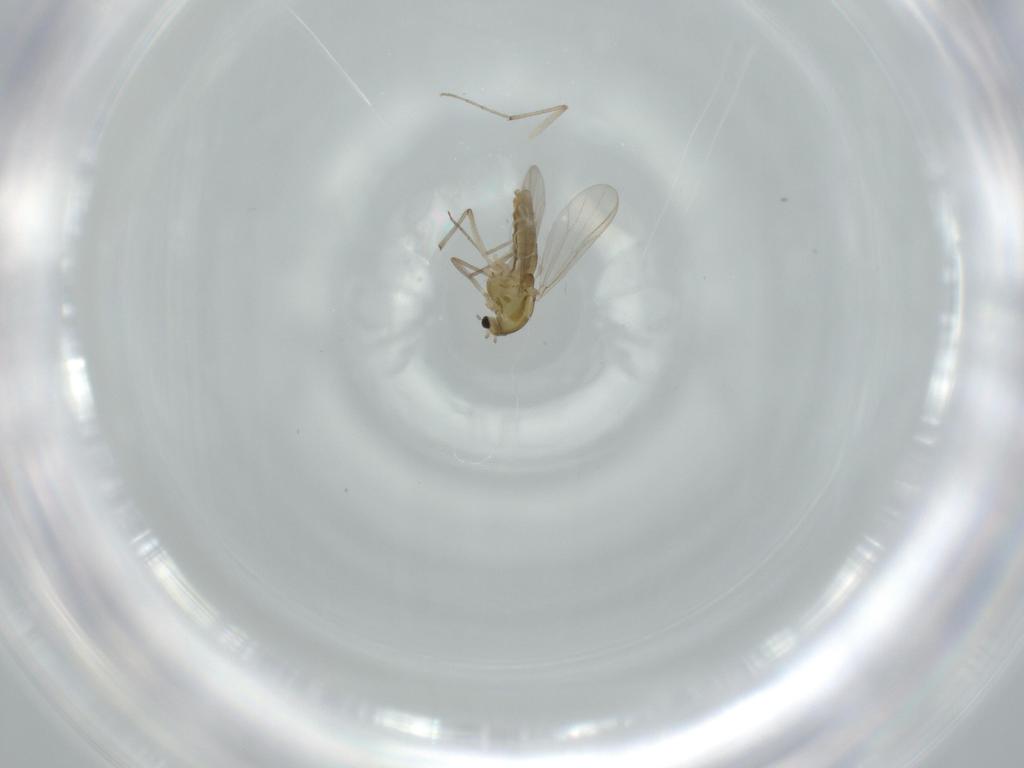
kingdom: Animalia
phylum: Arthropoda
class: Insecta
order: Diptera
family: Chironomidae
